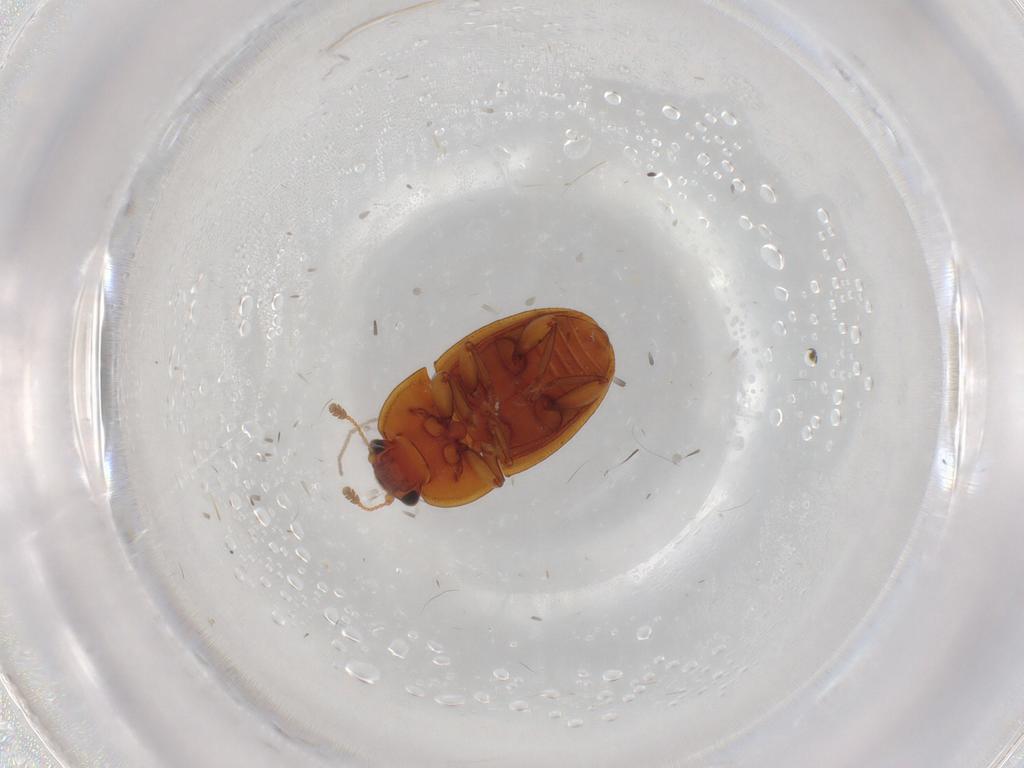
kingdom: Animalia
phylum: Arthropoda
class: Insecta
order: Coleoptera
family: Nitidulidae
